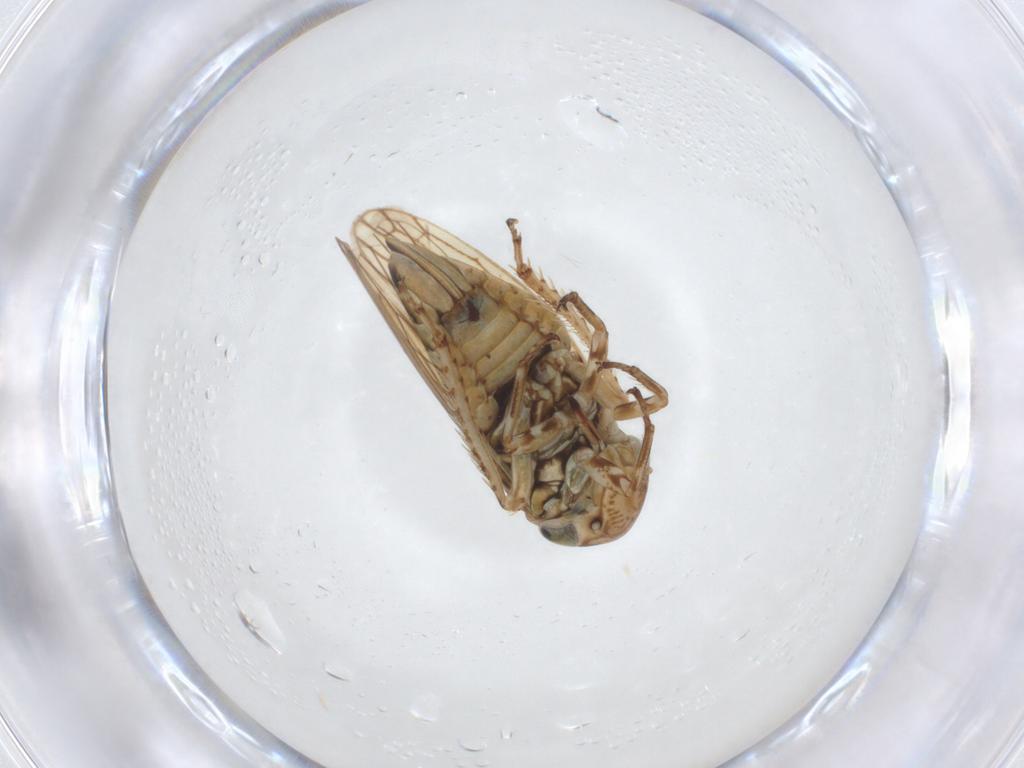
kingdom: Animalia
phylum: Arthropoda
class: Insecta
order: Hemiptera
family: Cicadellidae
